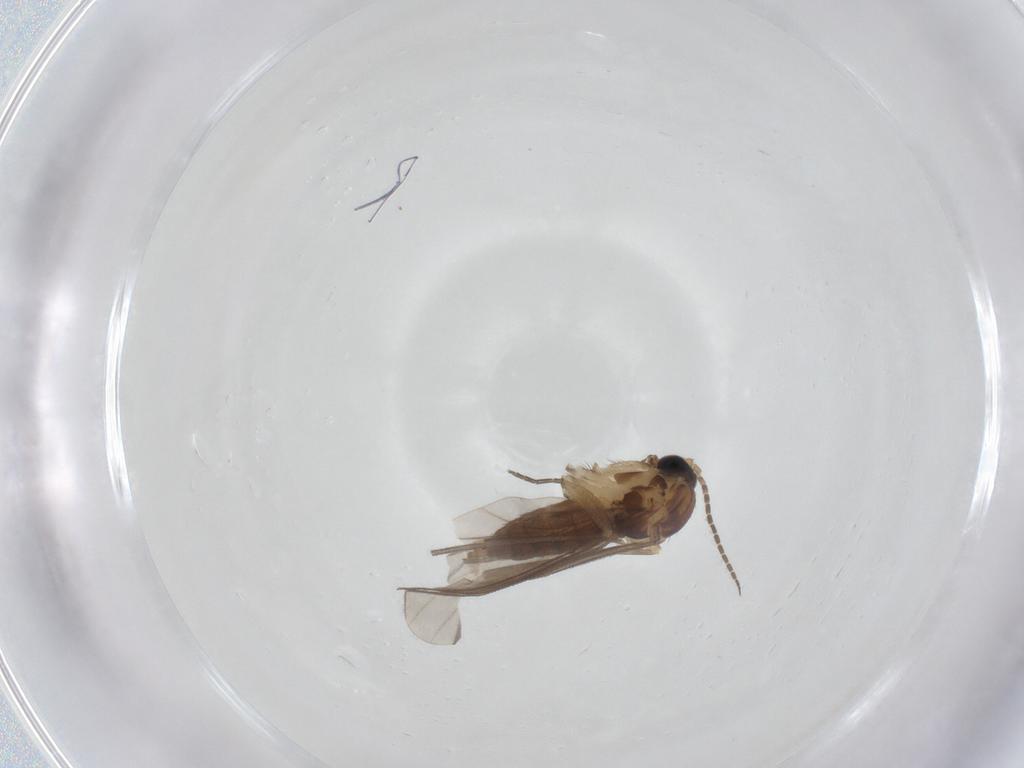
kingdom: Animalia
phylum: Arthropoda
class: Insecta
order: Diptera
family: Sciaridae
